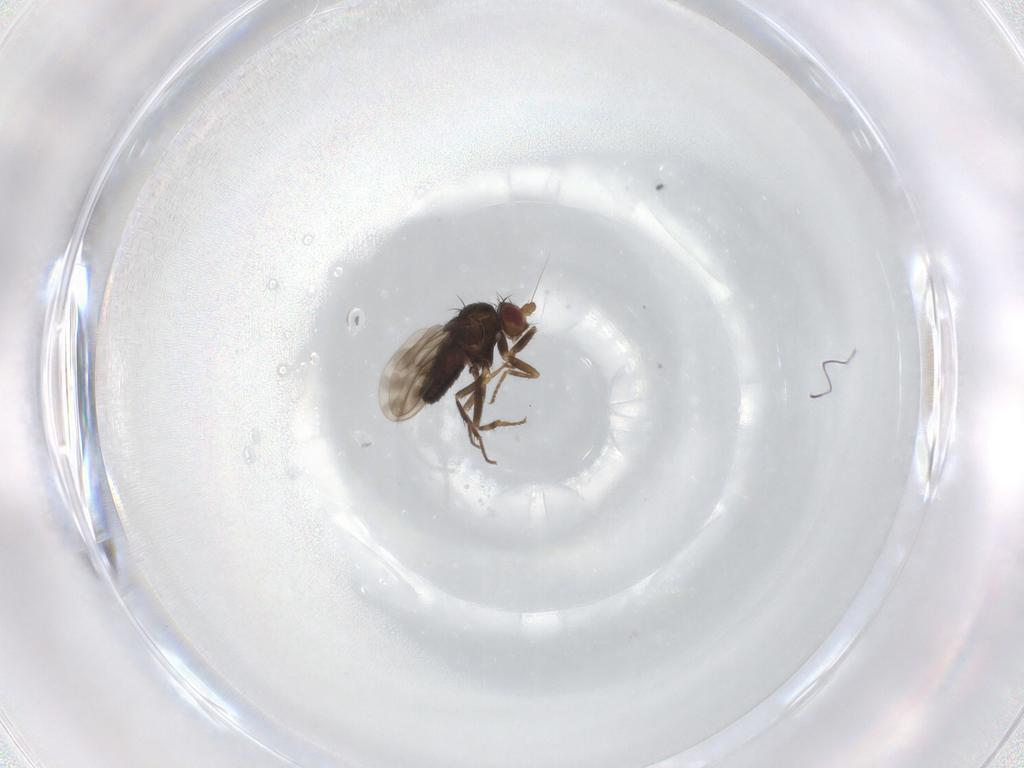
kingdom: Animalia
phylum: Arthropoda
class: Insecta
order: Diptera
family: Sphaeroceridae
